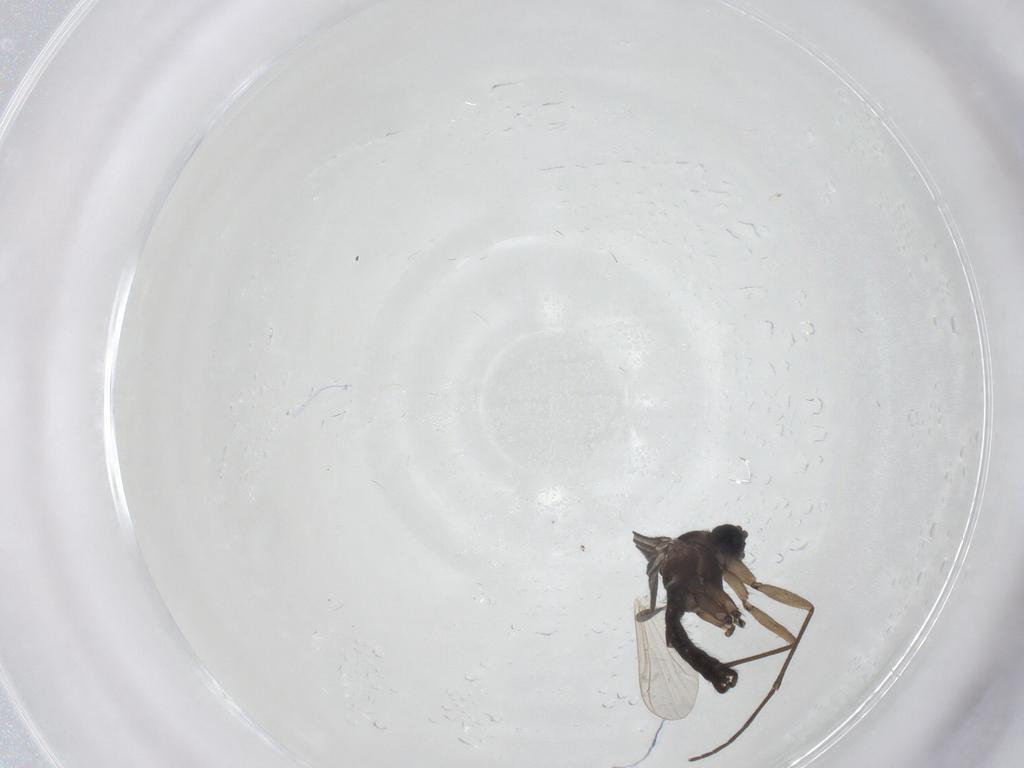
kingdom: Animalia
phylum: Arthropoda
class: Insecta
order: Diptera
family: Sciaridae
